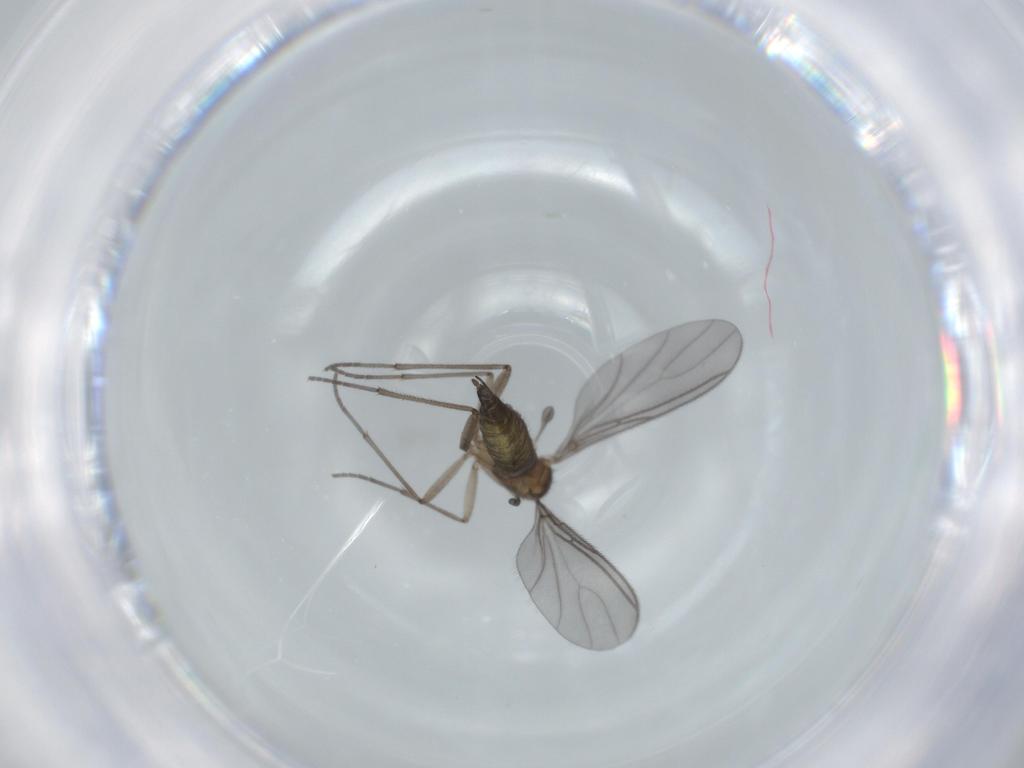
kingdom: Animalia
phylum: Arthropoda
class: Insecta
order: Diptera
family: Sciaridae
